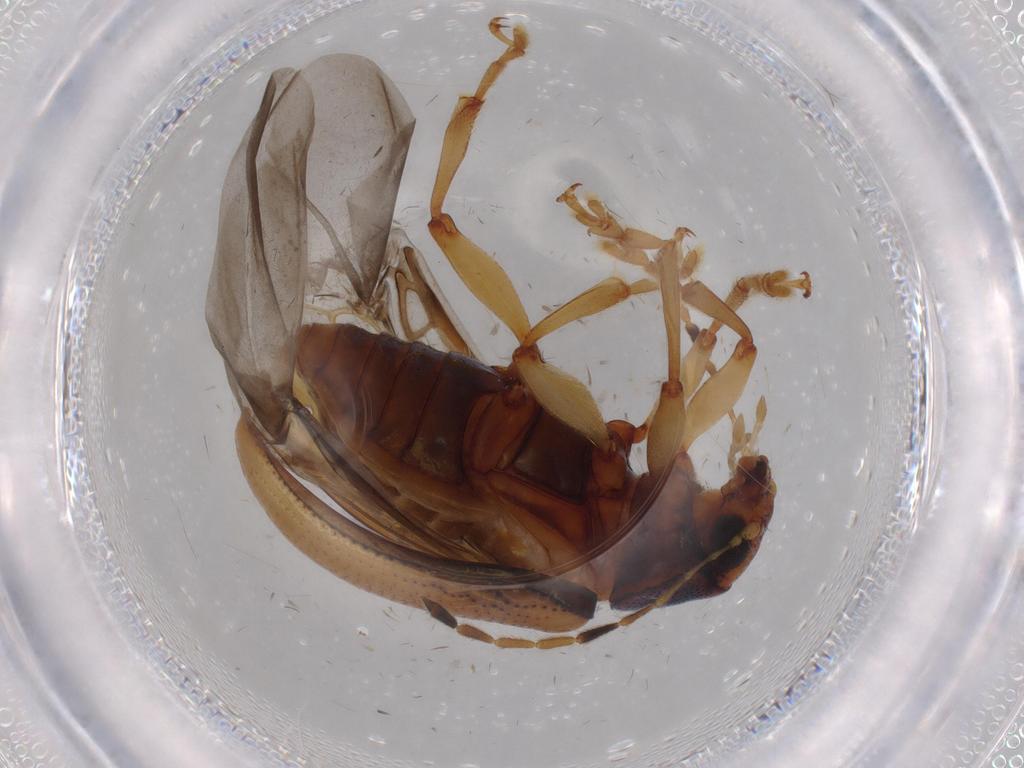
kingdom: Animalia
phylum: Arthropoda
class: Insecta
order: Coleoptera
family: Chrysomelidae
